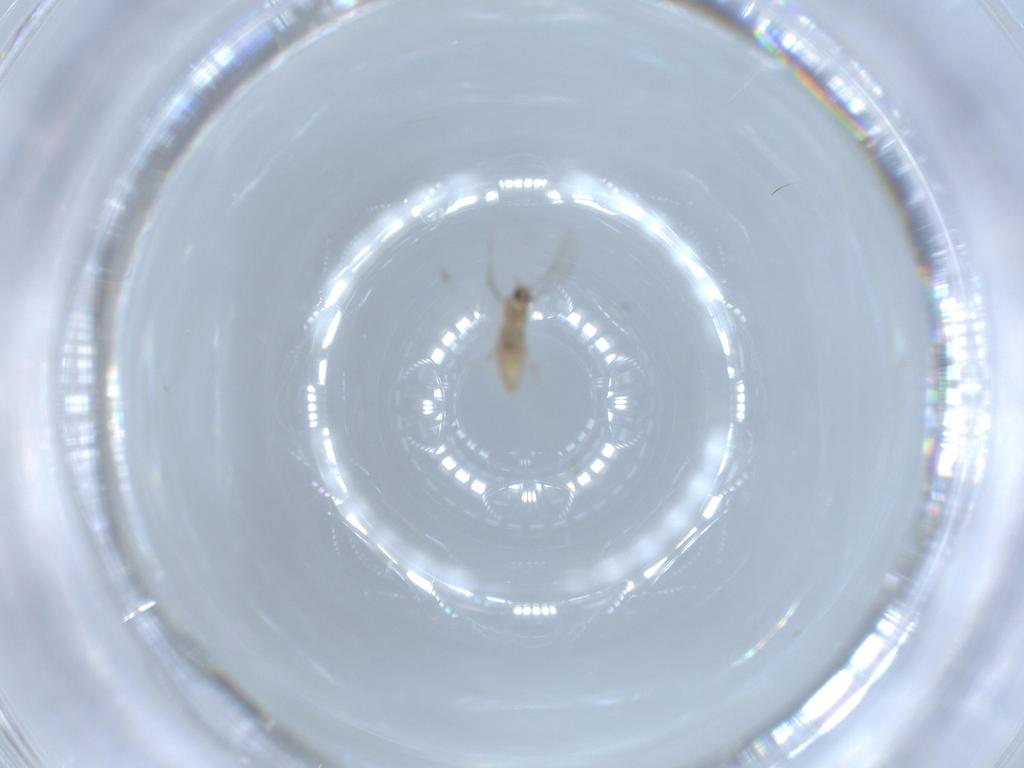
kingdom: Animalia
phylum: Arthropoda
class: Insecta
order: Diptera
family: Cecidomyiidae
